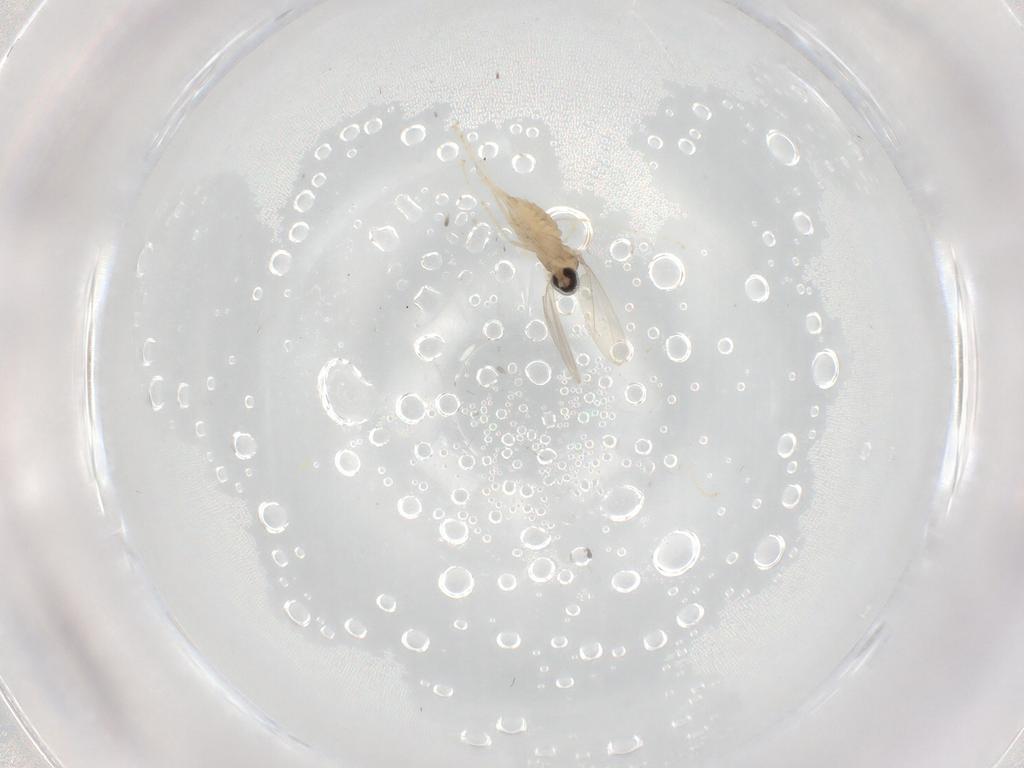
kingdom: Animalia
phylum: Arthropoda
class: Insecta
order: Diptera
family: Cecidomyiidae
